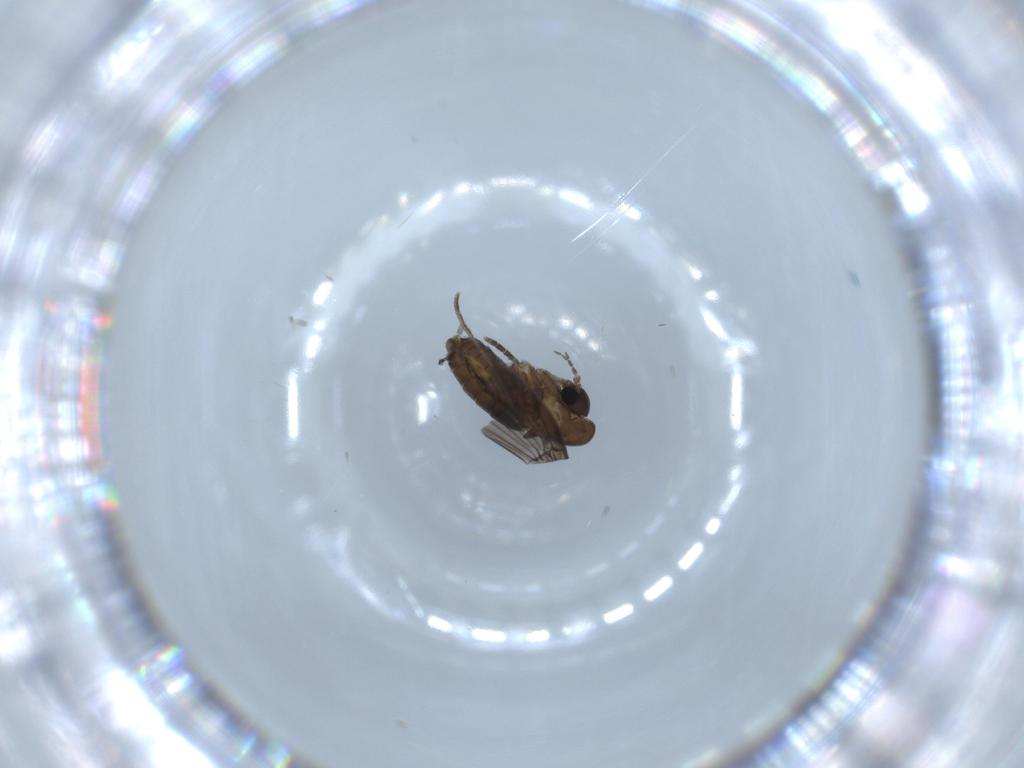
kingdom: Animalia
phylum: Arthropoda
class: Insecta
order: Diptera
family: Psychodidae
